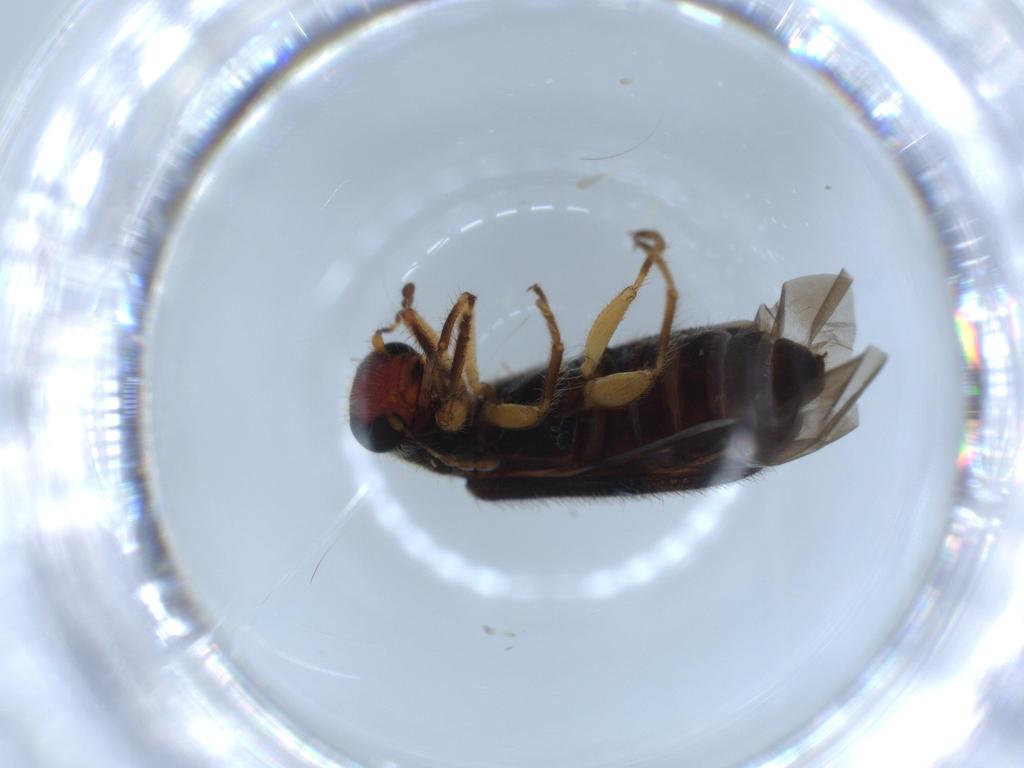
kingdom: Animalia
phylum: Arthropoda
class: Insecta
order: Coleoptera
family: Cleridae
